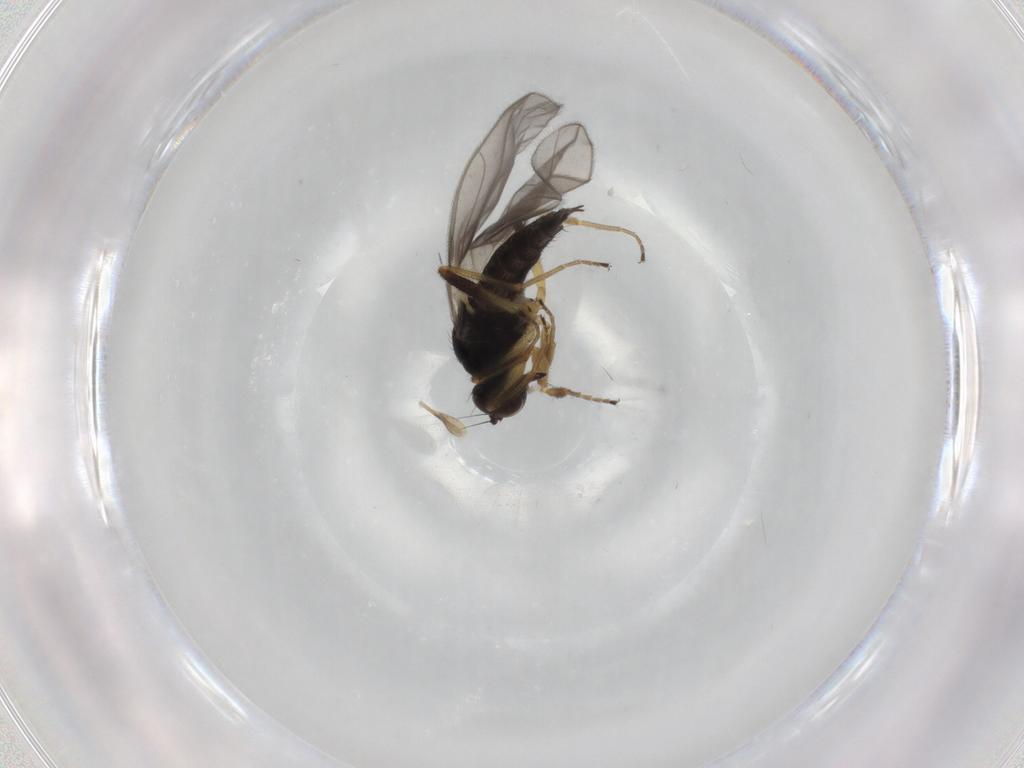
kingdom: Animalia
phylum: Arthropoda
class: Insecta
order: Diptera
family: Hybotidae
